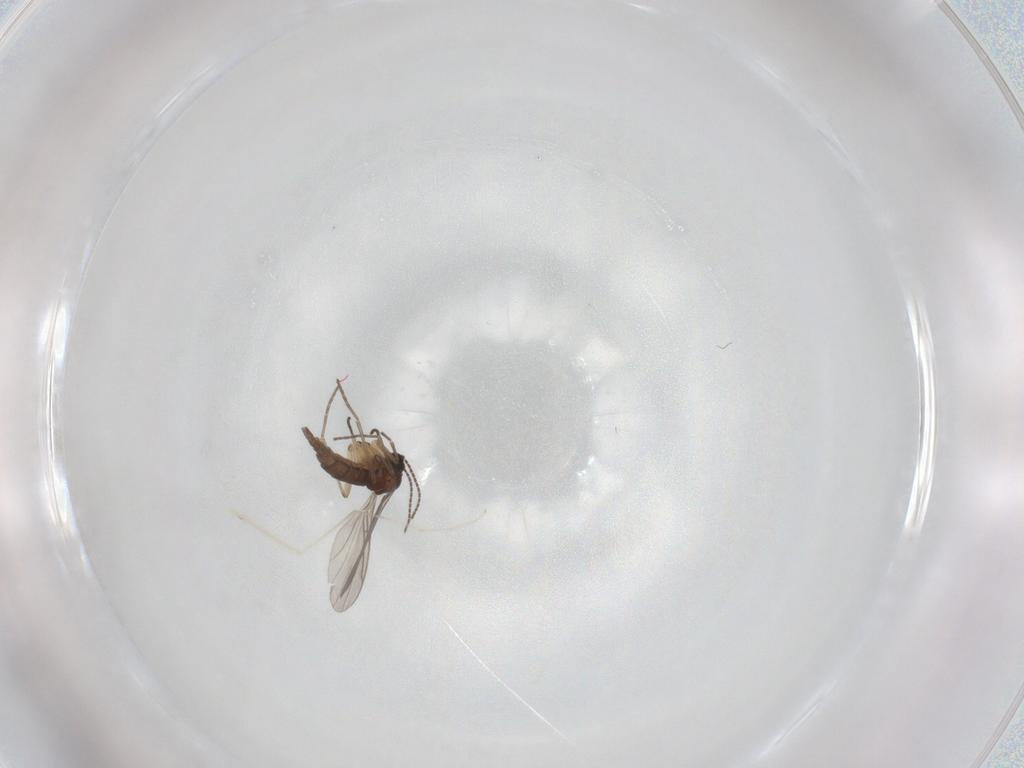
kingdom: Animalia
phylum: Arthropoda
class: Insecta
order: Diptera
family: Sciaridae
